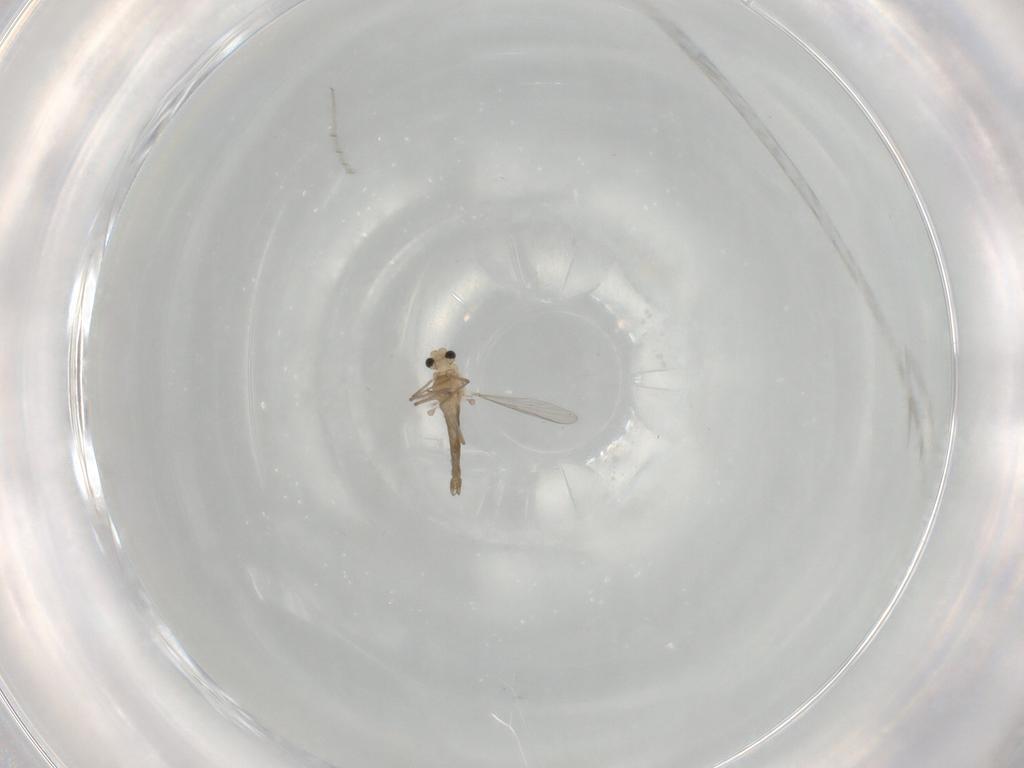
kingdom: Animalia
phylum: Arthropoda
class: Insecta
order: Diptera
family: Chironomidae
